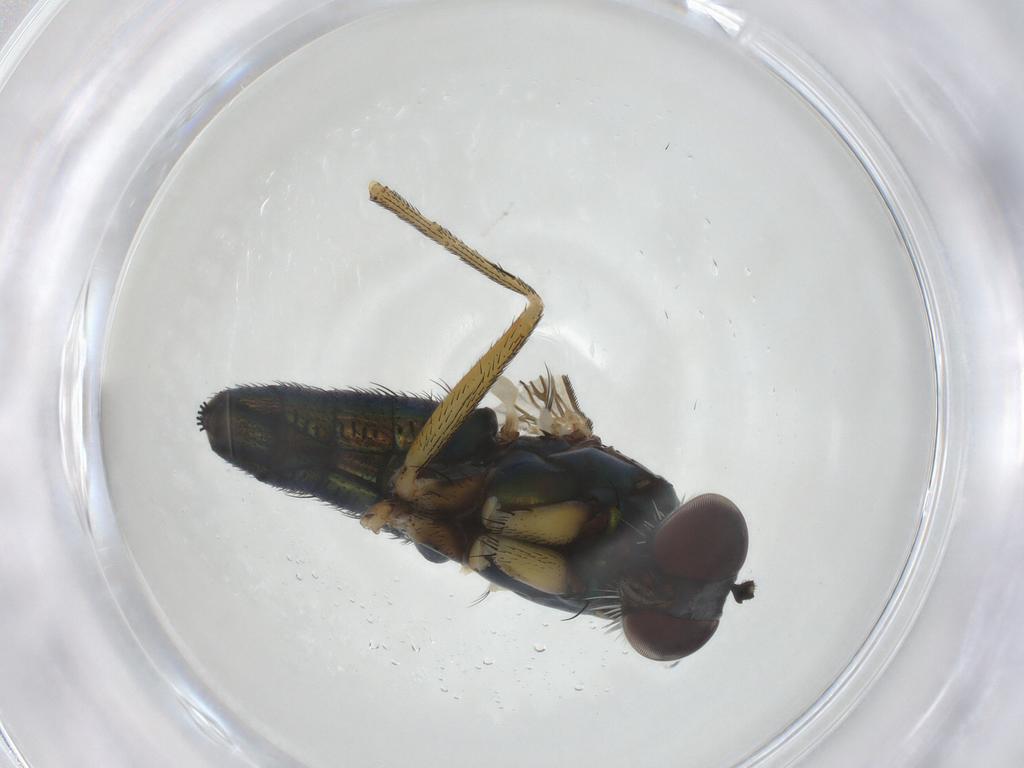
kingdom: Animalia
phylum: Arthropoda
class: Insecta
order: Diptera
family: Dolichopodidae
